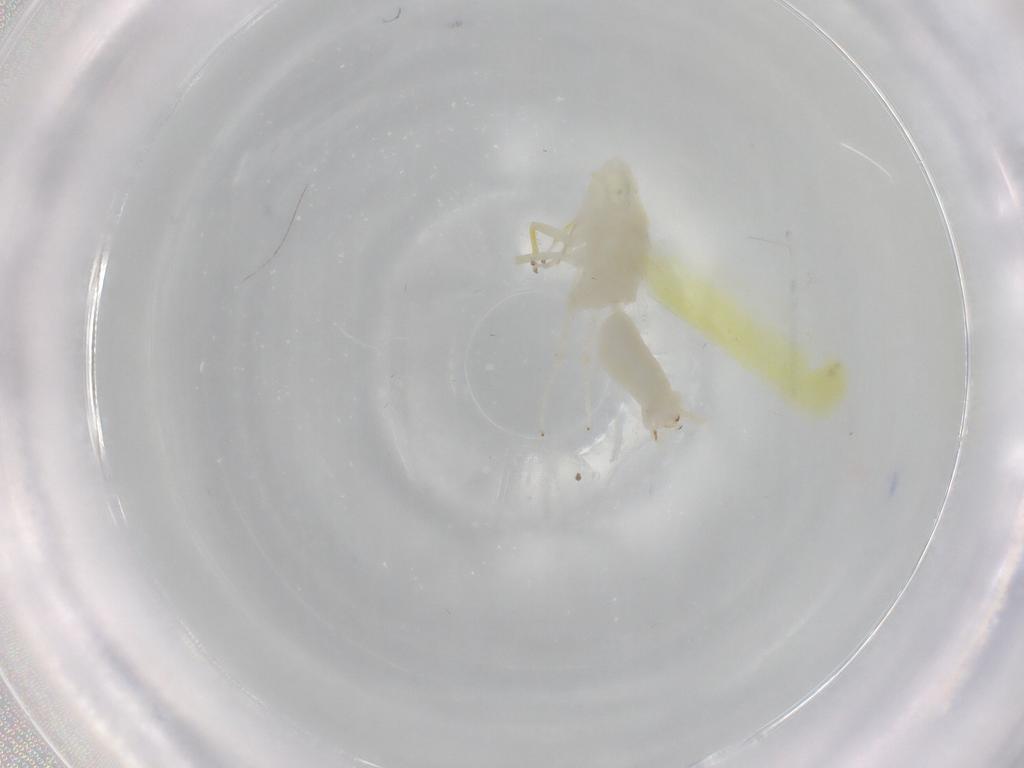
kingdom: Animalia
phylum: Arthropoda
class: Insecta
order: Hemiptera
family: Cicadellidae
